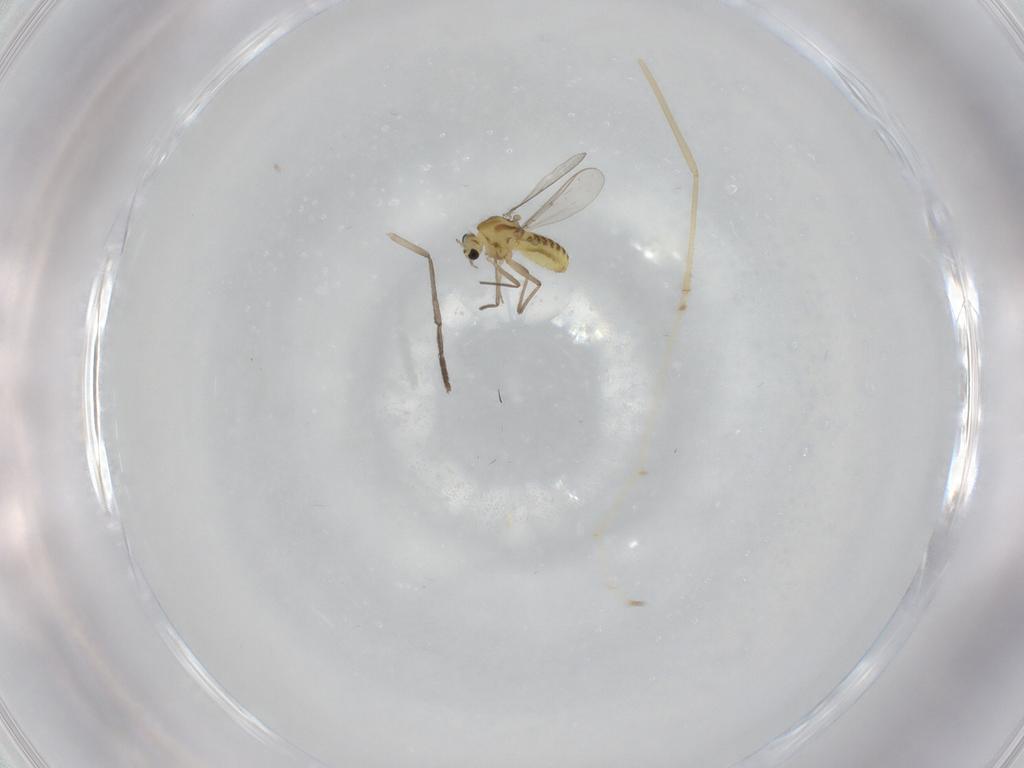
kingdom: Animalia
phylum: Arthropoda
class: Insecta
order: Diptera
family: Chironomidae
